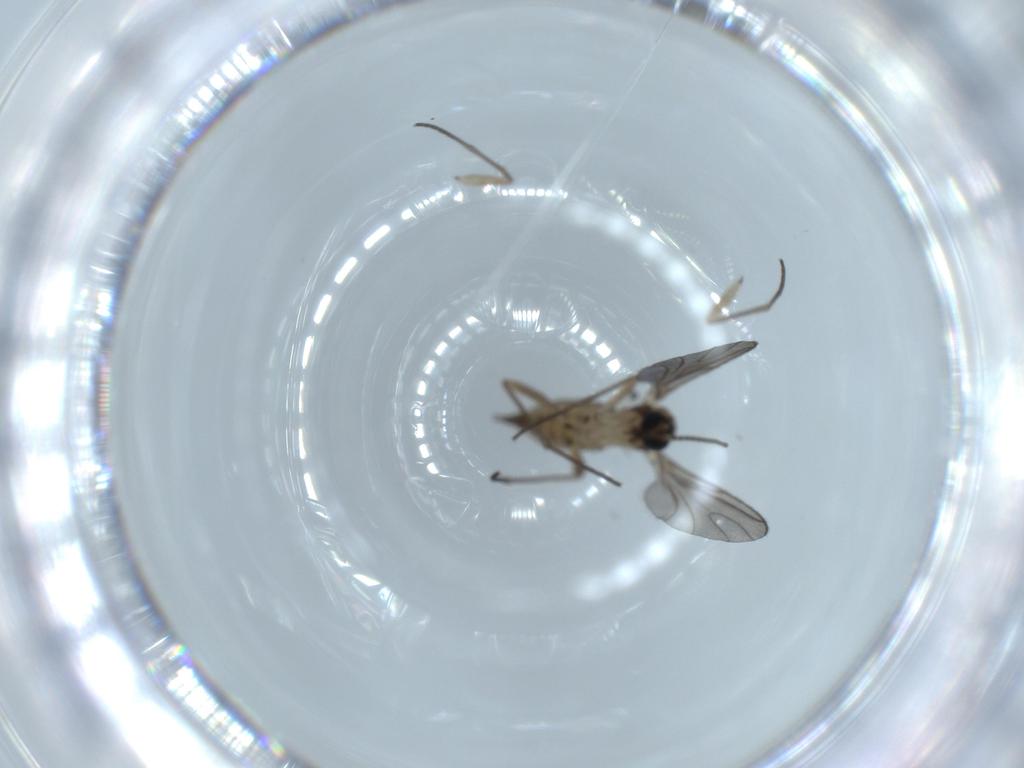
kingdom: Animalia
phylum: Arthropoda
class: Insecta
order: Diptera
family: Sciaridae
